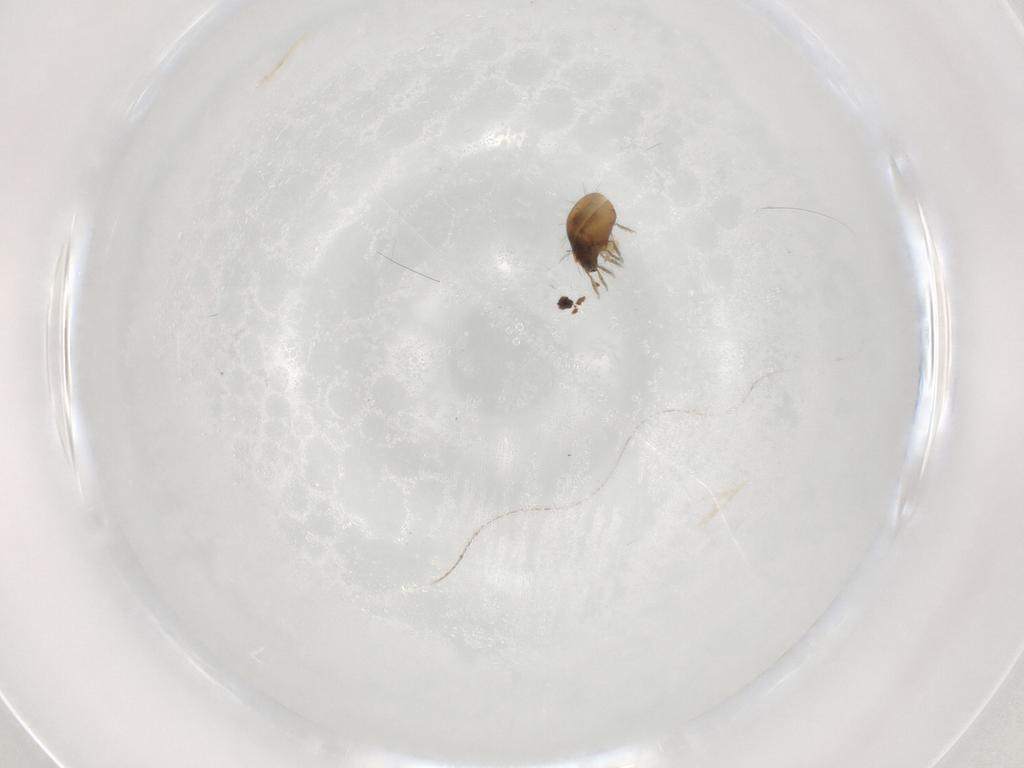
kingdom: Animalia
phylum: Arthropoda
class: Arachnida
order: Sarcoptiformes
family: Humerobatidae
